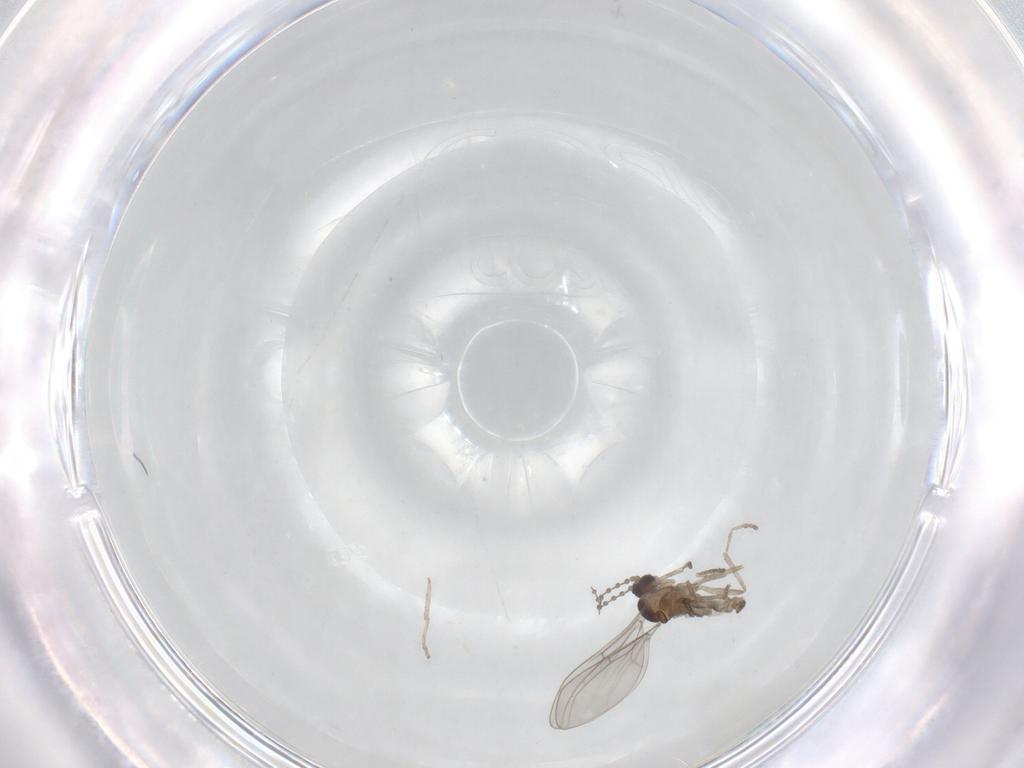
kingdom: Animalia
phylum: Arthropoda
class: Insecta
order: Diptera
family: Cecidomyiidae
